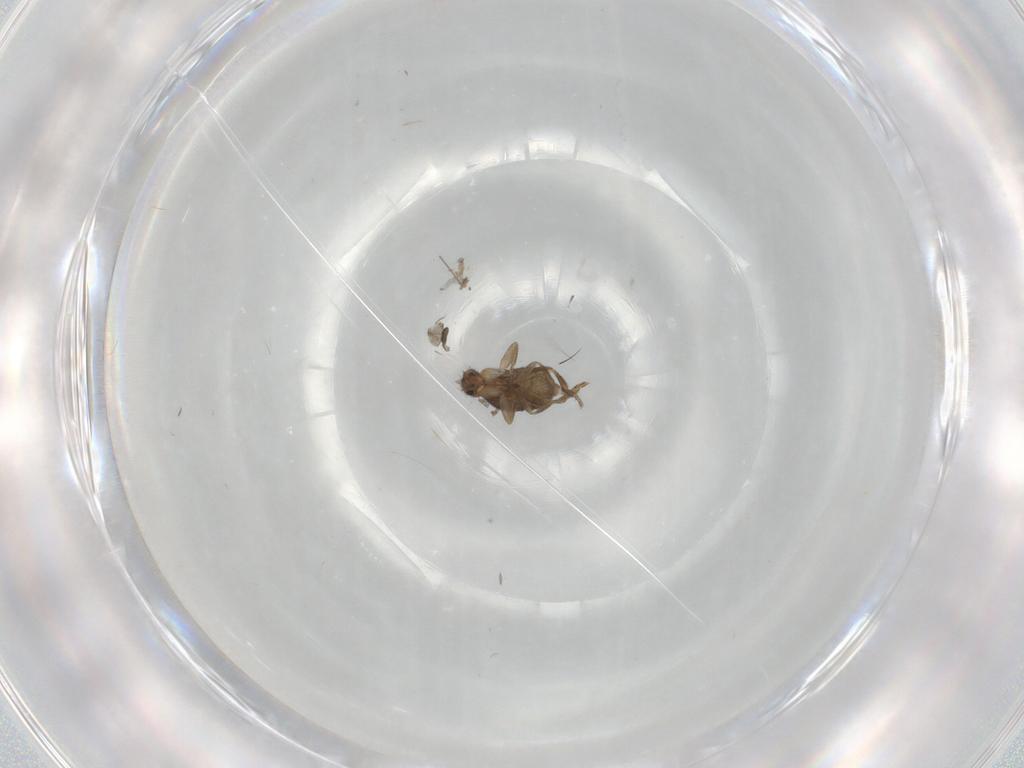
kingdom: Animalia
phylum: Arthropoda
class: Insecta
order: Diptera
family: Phoridae
